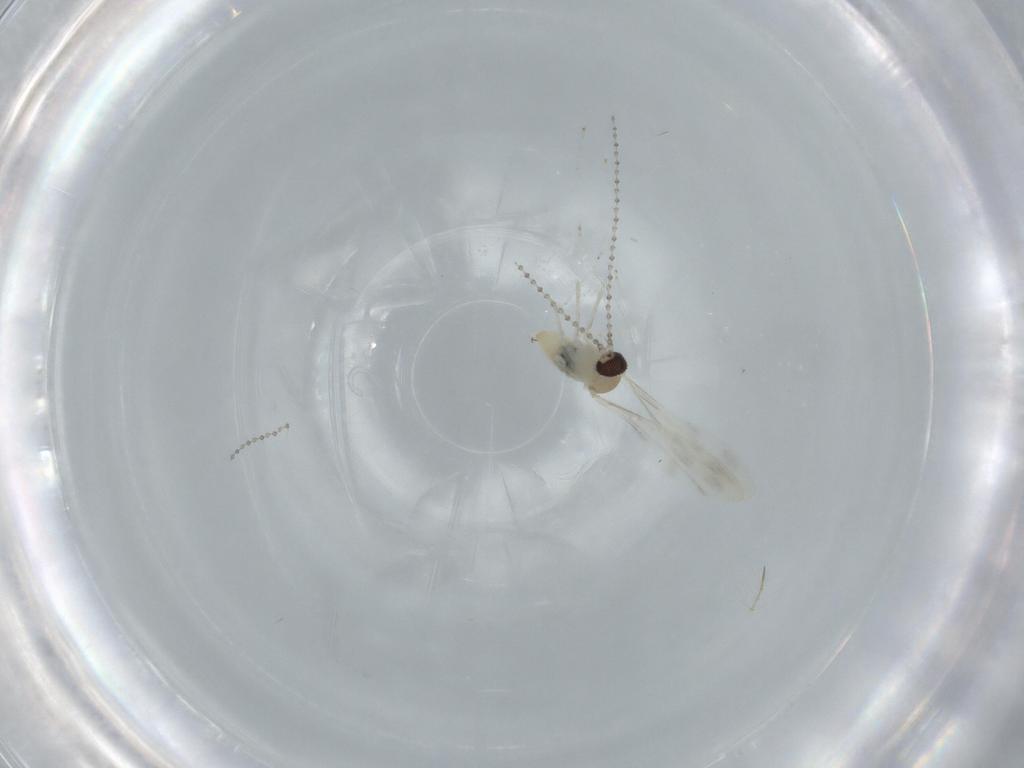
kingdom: Animalia
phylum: Arthropoda
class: Insecta
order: Diptera
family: Cecidomyiidae
